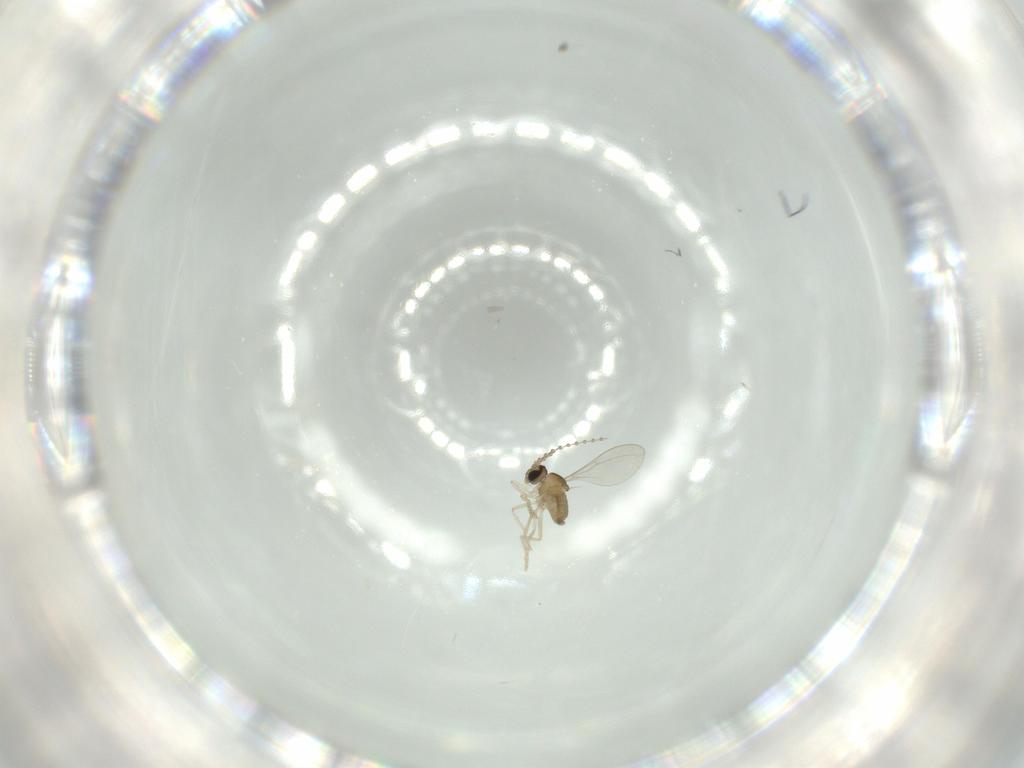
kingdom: Animalia
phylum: Arthropoda
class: Insecta
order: Diptera
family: Cecidomyiidae
